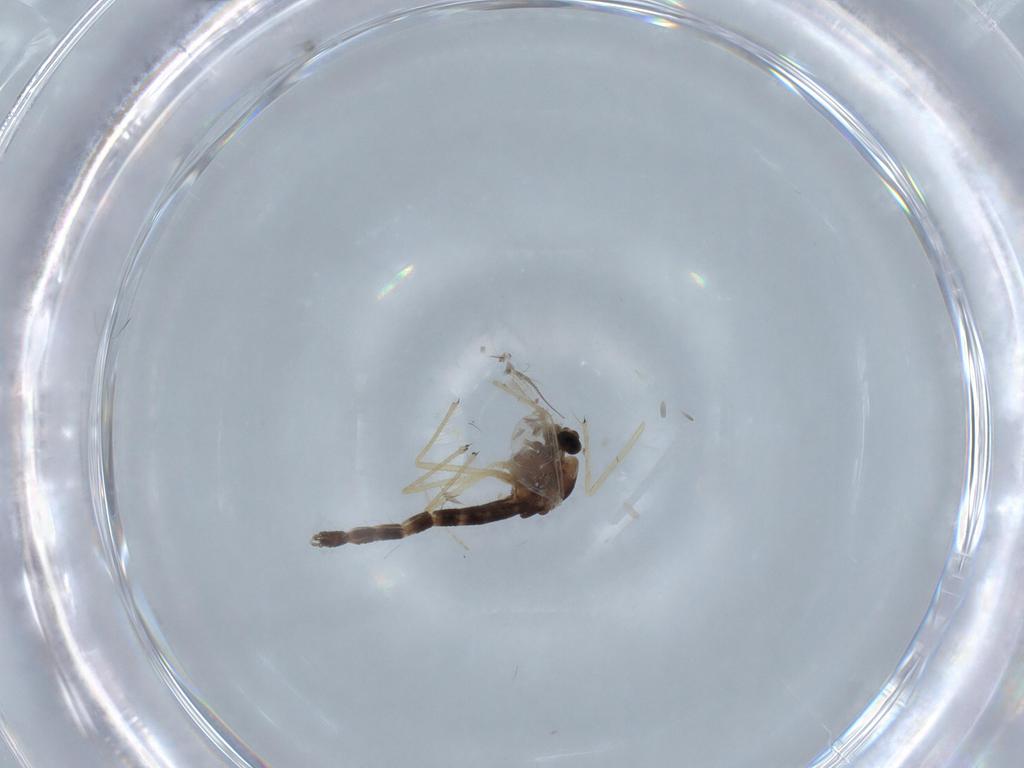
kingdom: Animalia
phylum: Arthropoda
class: Insecta
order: Diptera
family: Chironomidae
